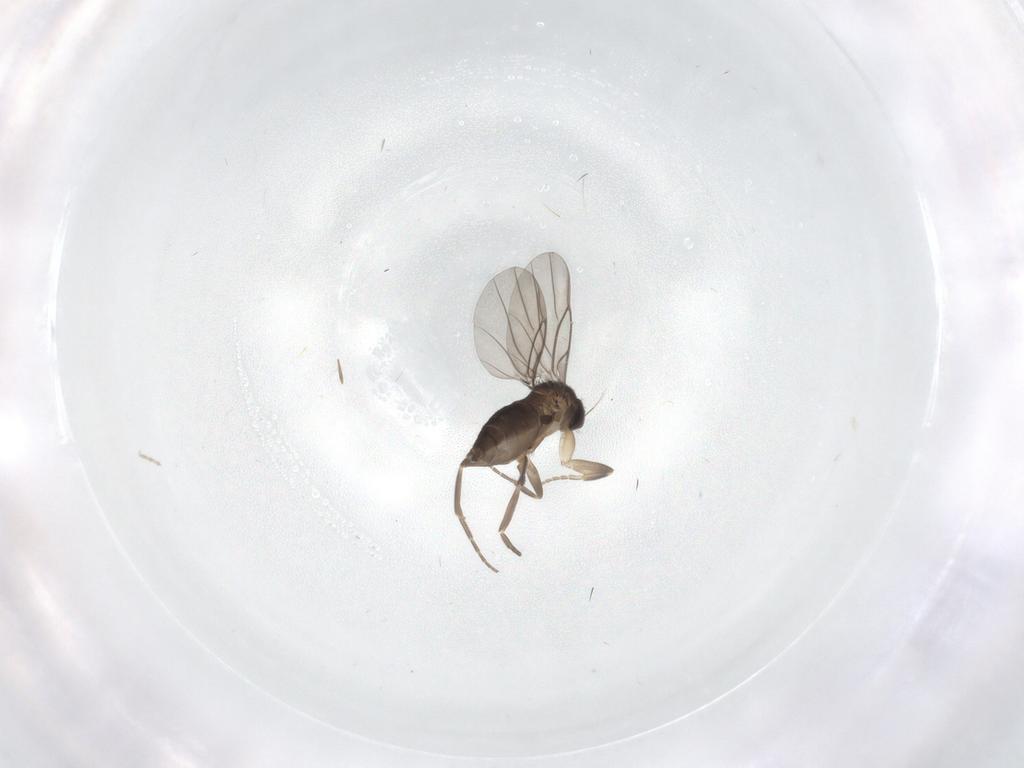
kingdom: Animalia
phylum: Arthropoda
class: Insecta
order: Diptera
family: Cecidomyiidae
